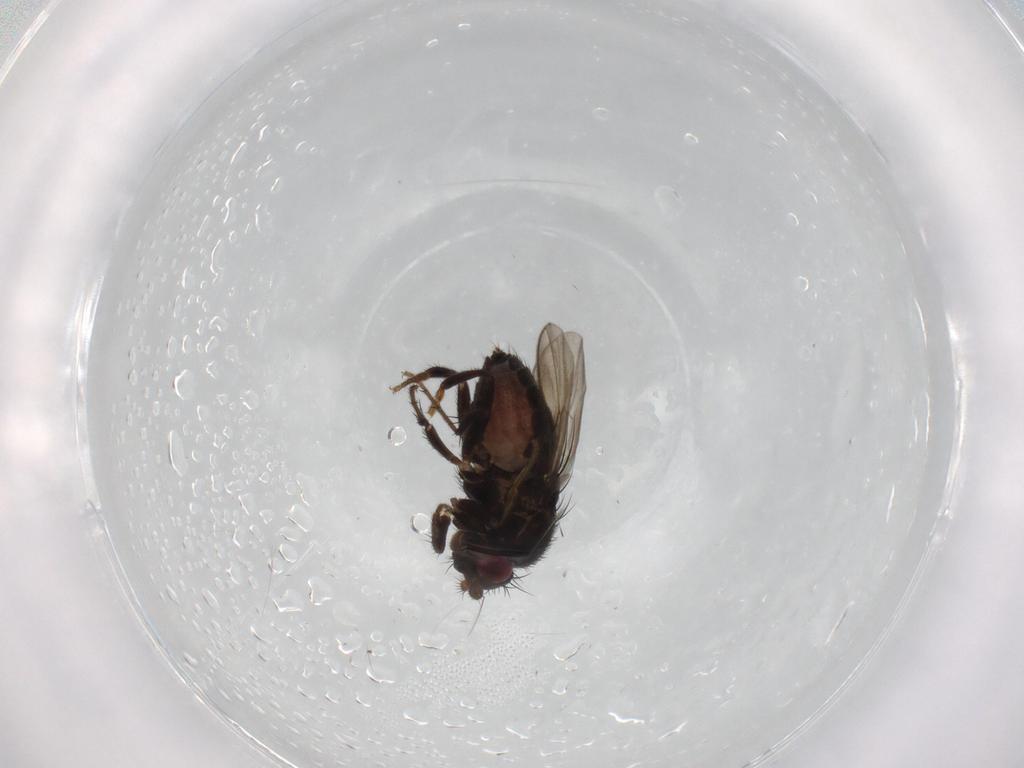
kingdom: Animalia
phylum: Arthropoda
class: Insecta
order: Diptera
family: Sphaeroceridae
